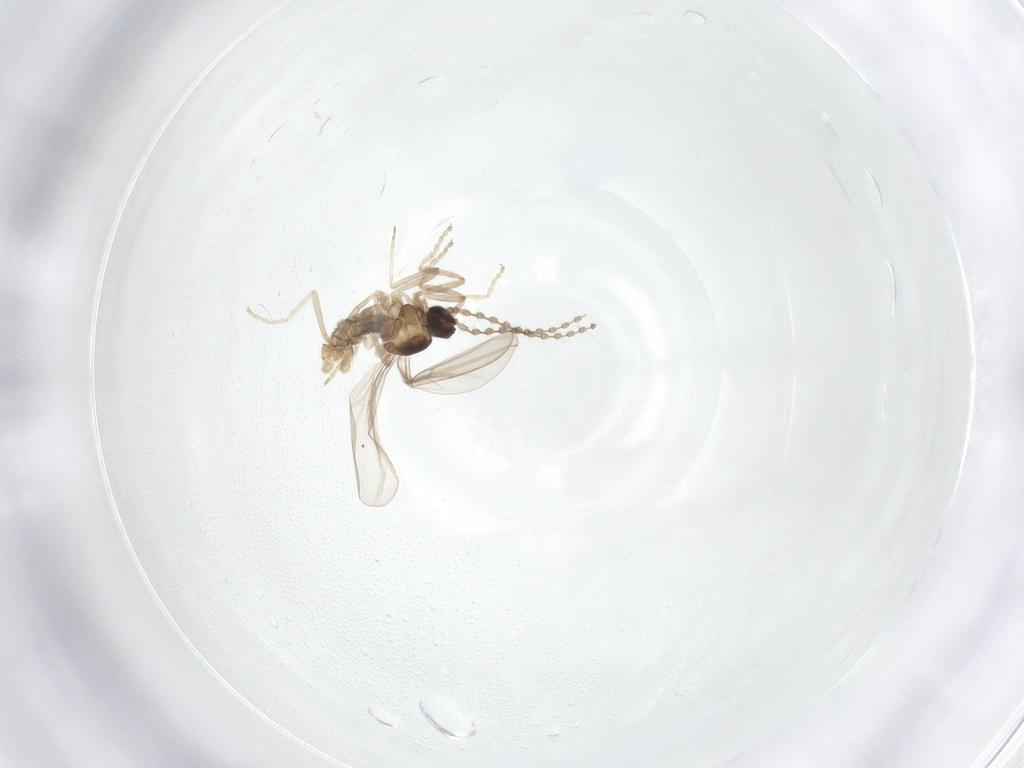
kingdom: Animalia
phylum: Arthropoda
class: Insecta
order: Diptera
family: Cecidomyiidae
